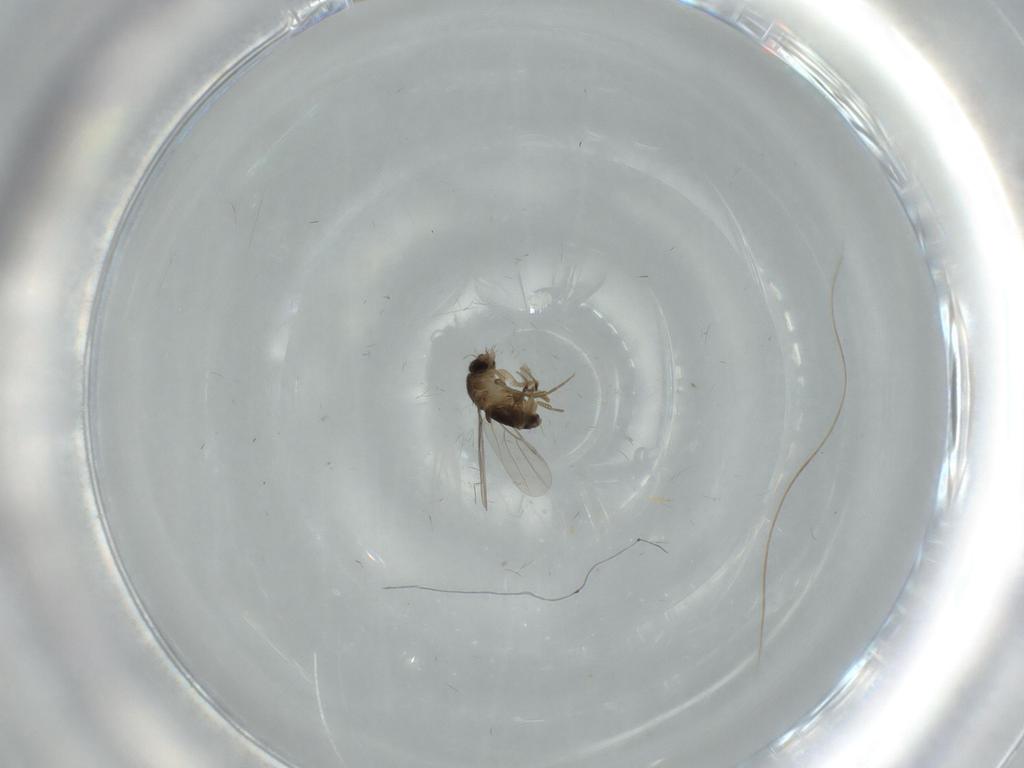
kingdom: Animalia
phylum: Arthropoda
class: Insecta
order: Diptera
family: Phoridae
